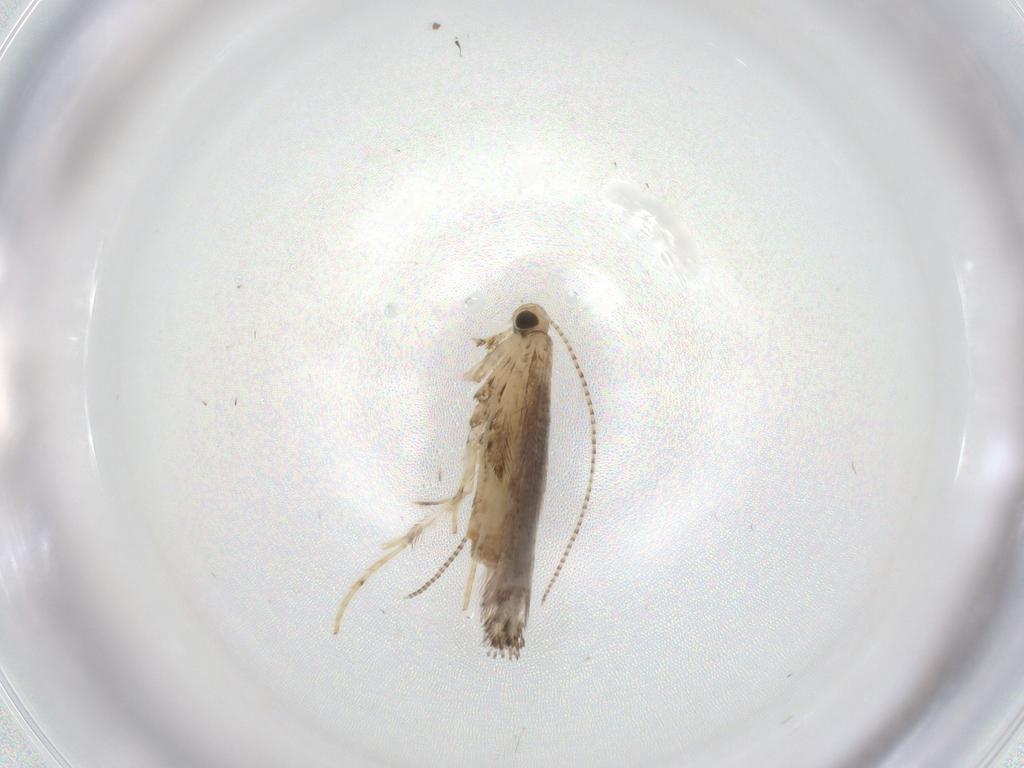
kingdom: Animalia
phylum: Arthropoda
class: Insecta
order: Lepidoptera
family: Gracillariidae
